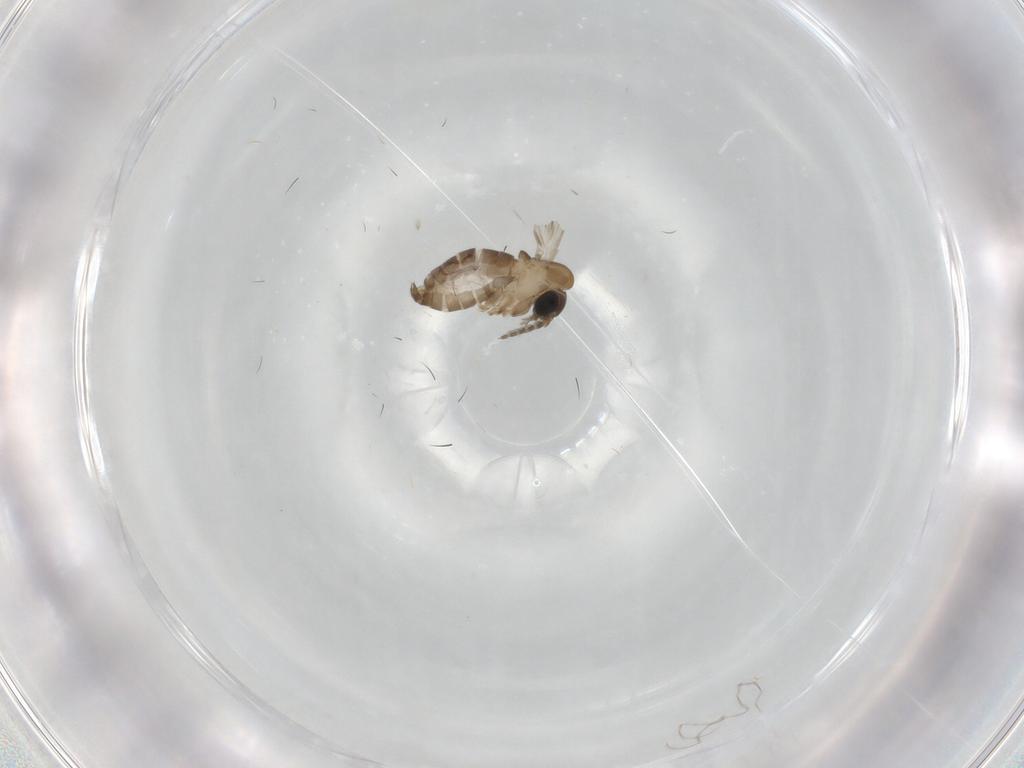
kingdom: Animalia
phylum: Arthropoda
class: Insecta
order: Diptera
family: Psychodidae
